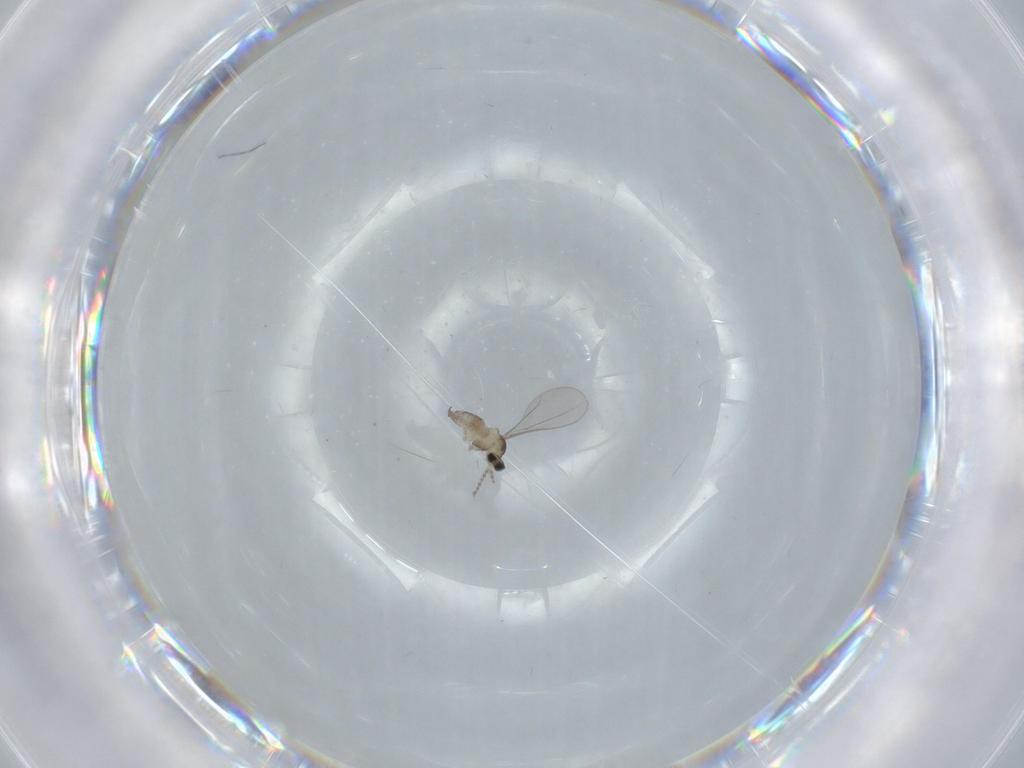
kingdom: Animalia
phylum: Arthropoda
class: Insecta
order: Diptera
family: Cecidomyiidae
